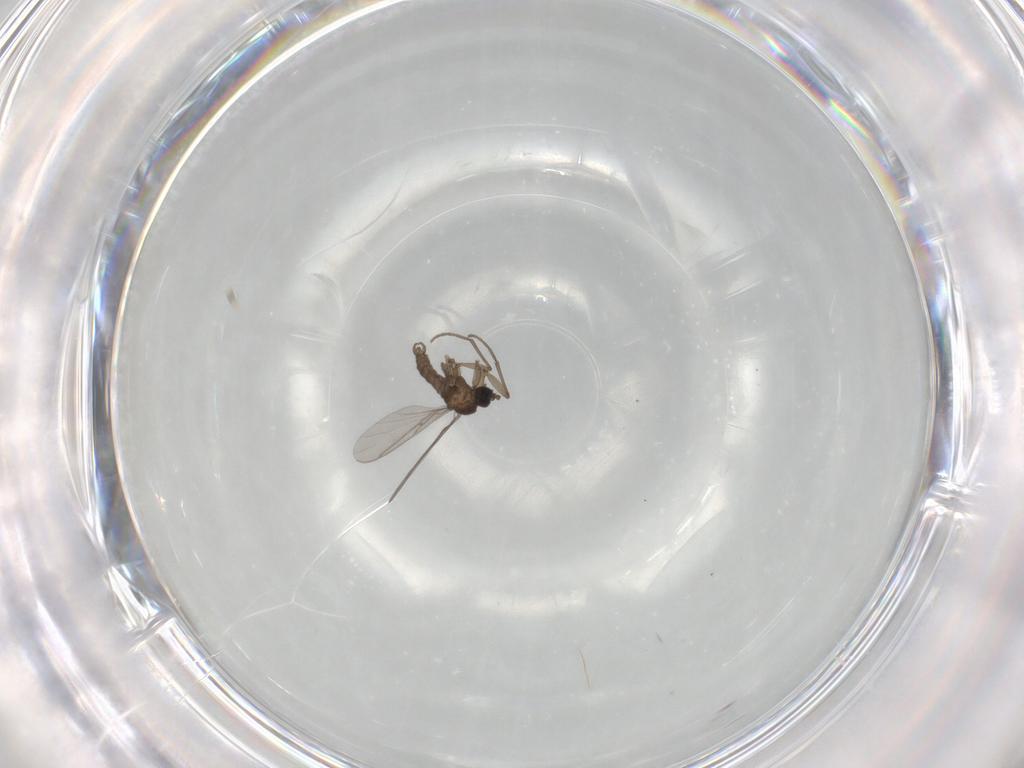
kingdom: Animalia
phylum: Arthropoda
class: Insecta
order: Diptera
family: Sciaridae
